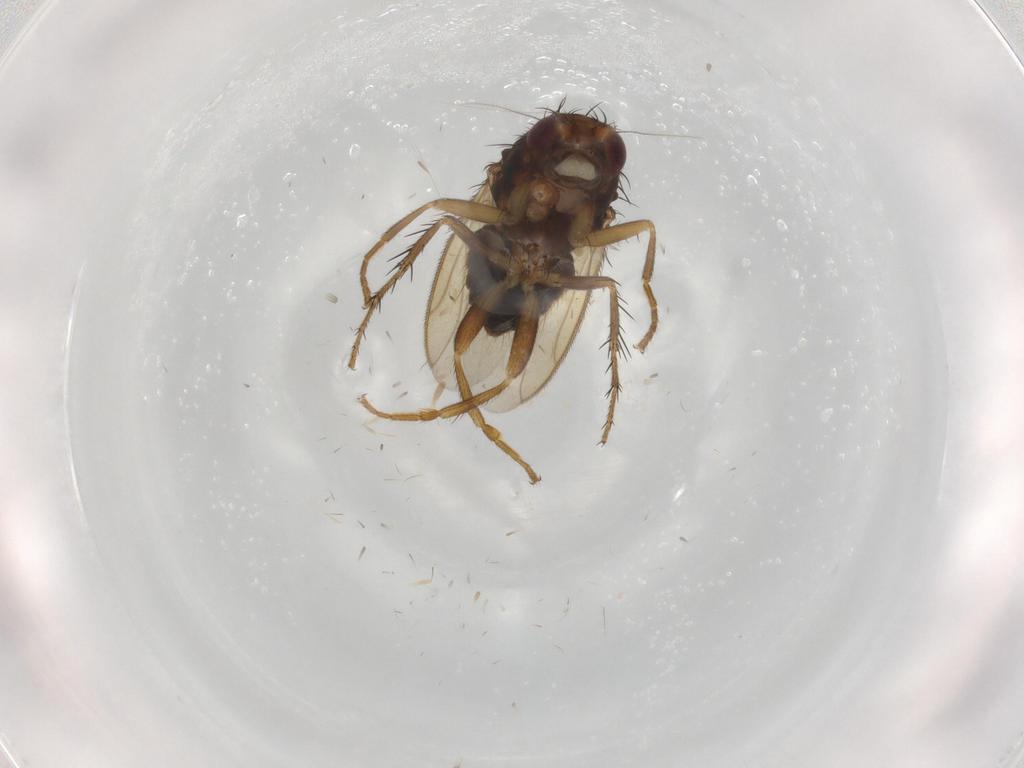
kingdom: Animalia
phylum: Arthropoda
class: Insecta
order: Diptera
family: Sphaeroceridae
